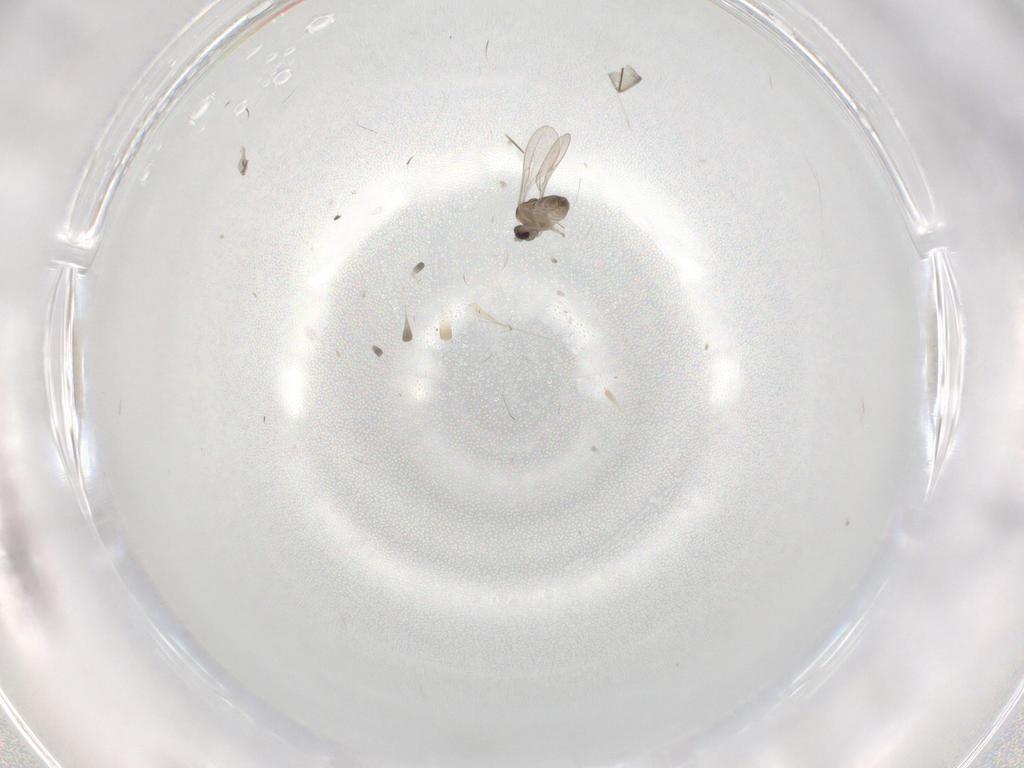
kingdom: Animalia
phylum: Arthropoda
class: Insecta
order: Diptera
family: Cecidomyiidae
